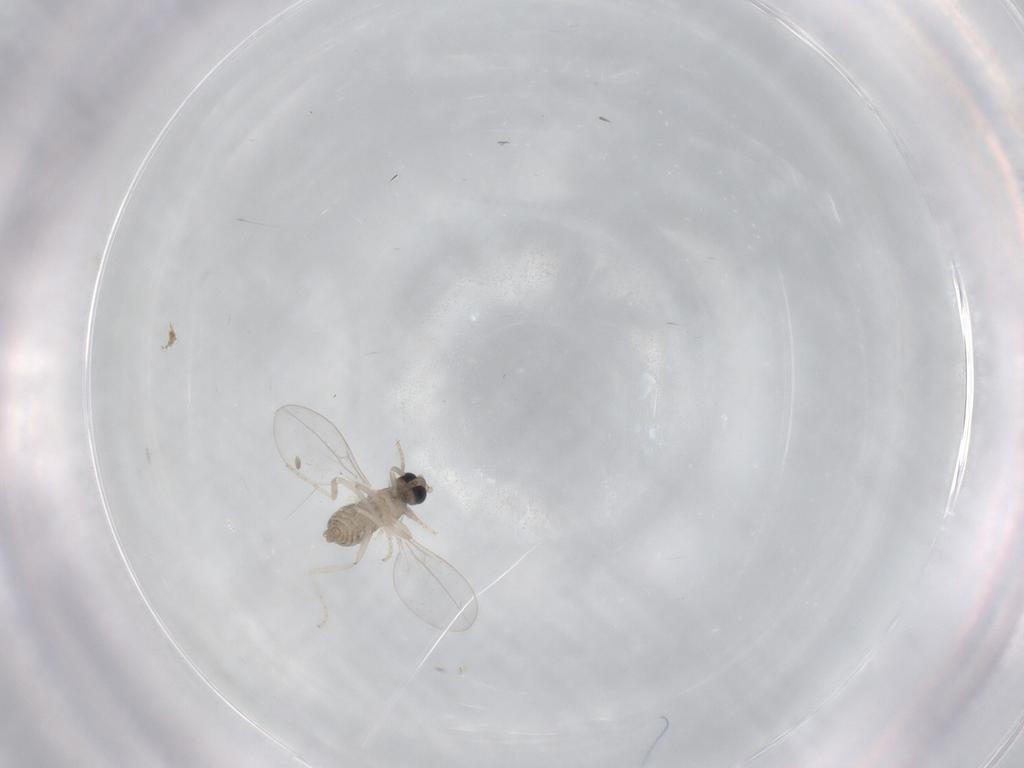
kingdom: Animalia
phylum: Arthropoda
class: Insecta
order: Diptera
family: Cecidomyiidae
